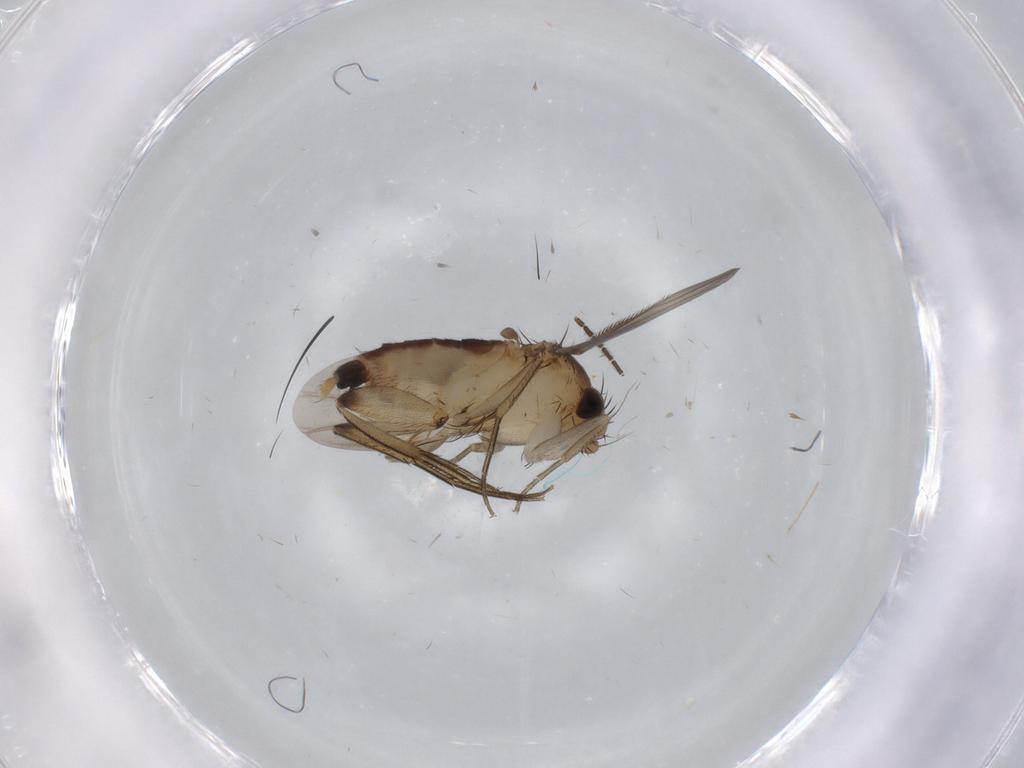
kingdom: Animalia
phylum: Arthropoda
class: Insecta
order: Diptera
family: Phoridae
